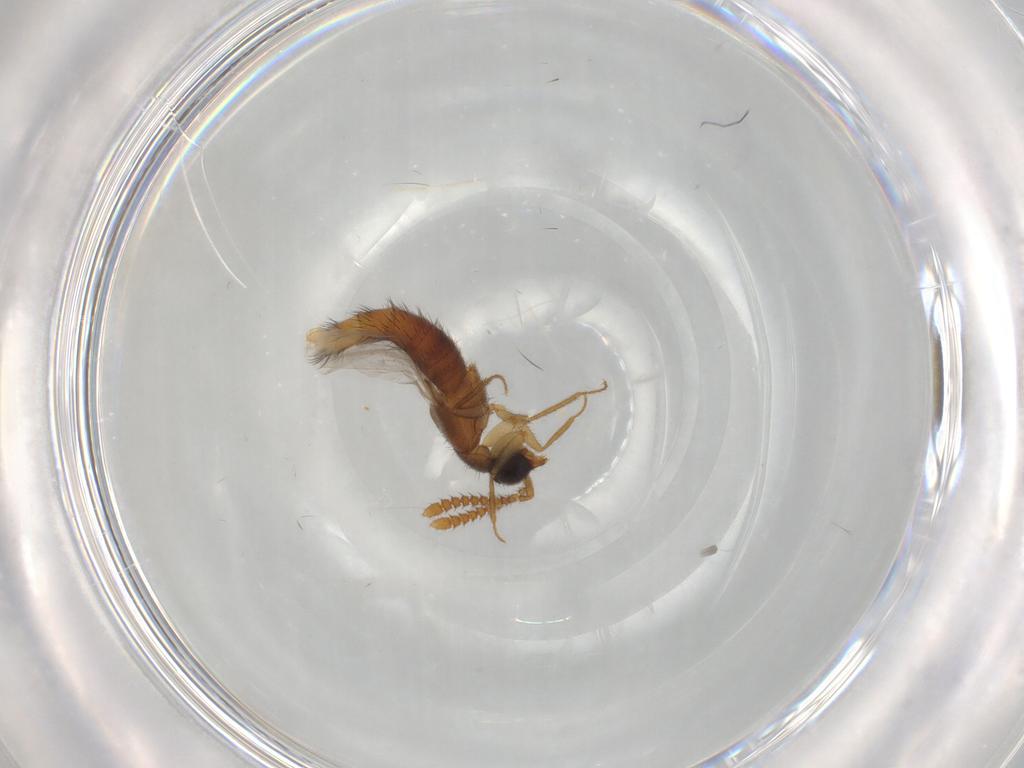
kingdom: Animalia
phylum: Arthropoda
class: Insecta
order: Coleoptera
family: Staphylinidae
